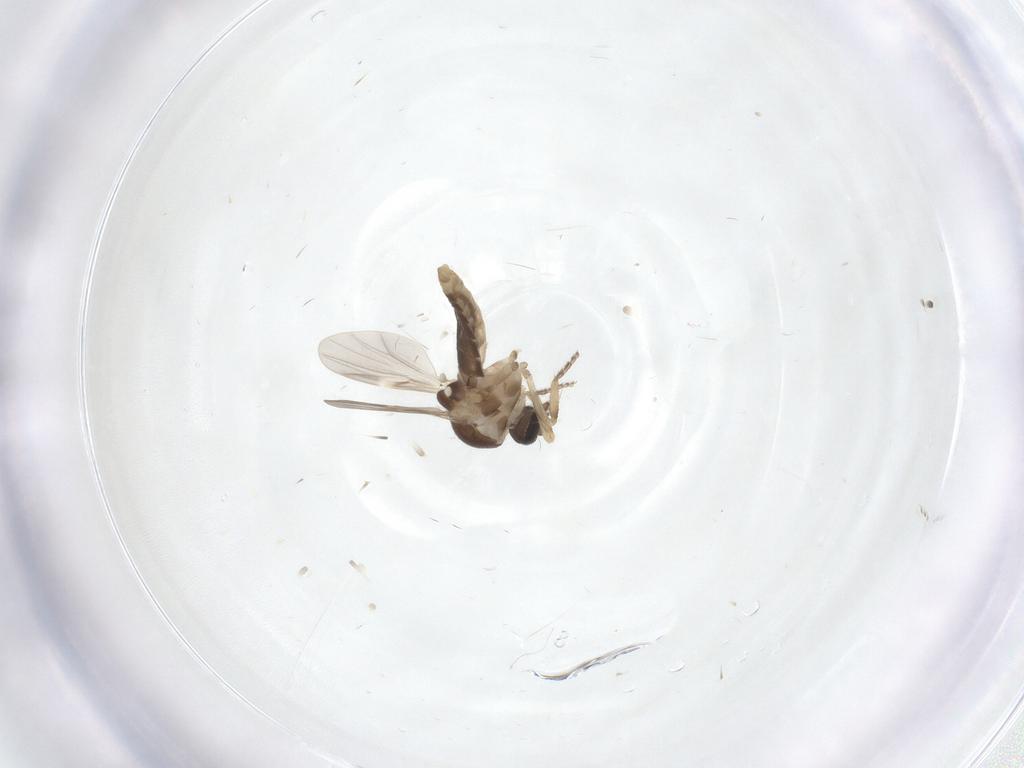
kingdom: Animalia
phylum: Arthropoda
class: Insecta
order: Diptera
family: Ceratopogonidae
